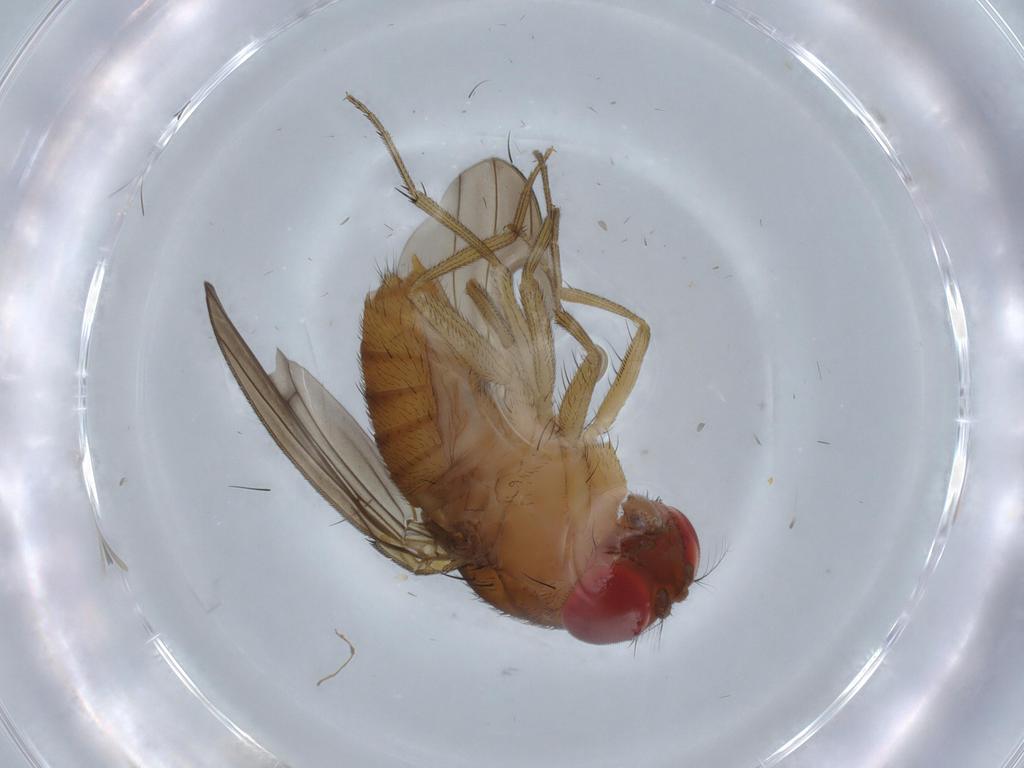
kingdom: Animalia
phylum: Arthropoda
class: Insecta
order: Diptera
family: Drosophilidae
